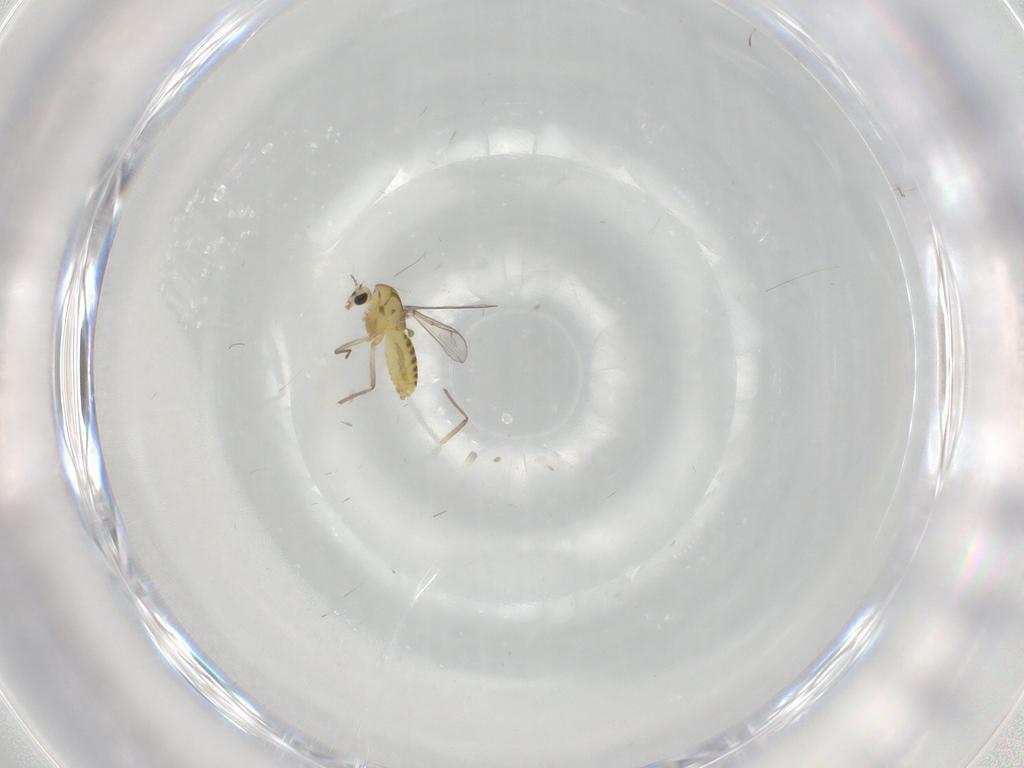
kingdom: Animalia
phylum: Arthropoda
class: Insecta
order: Diptera
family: Chironomidae
